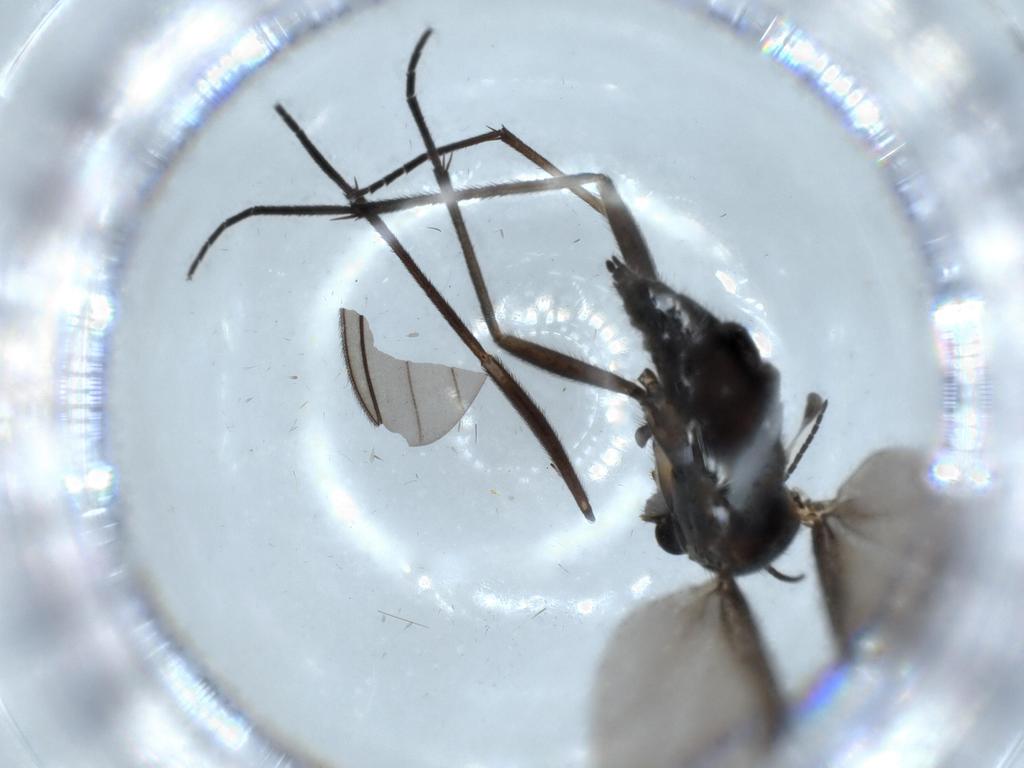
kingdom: Animalia
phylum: Arthropoda
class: Insecta
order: Diptera
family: Sciaridae
